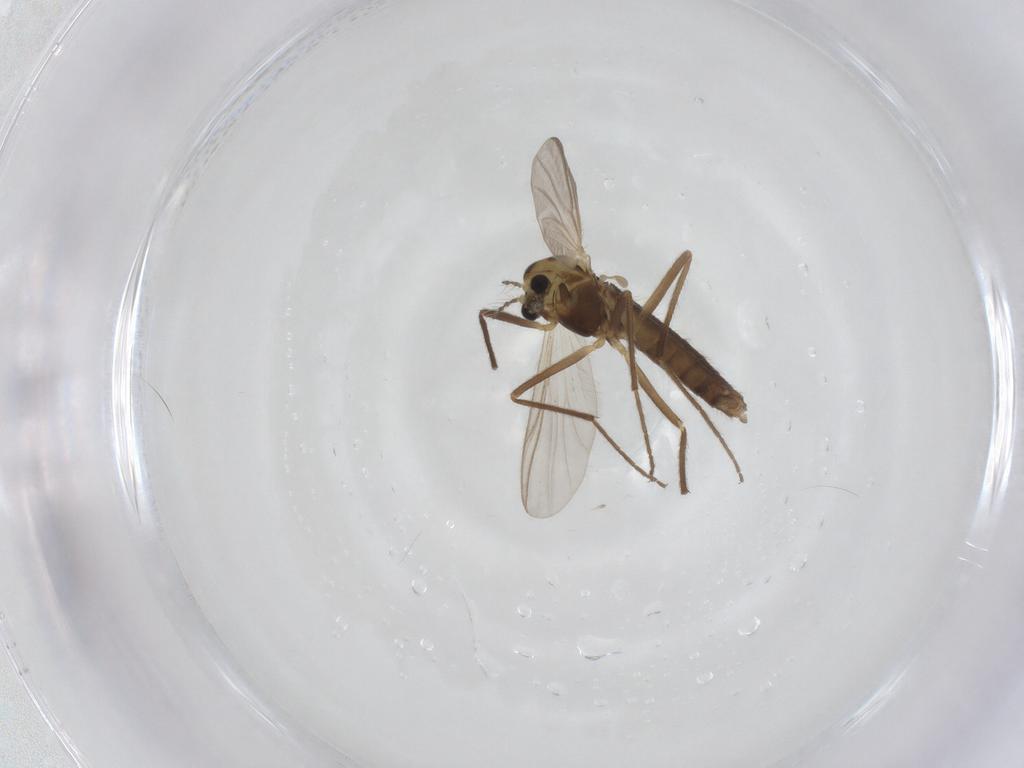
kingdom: Animalia
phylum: Arthropoda
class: Insecta
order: Diptera
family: Chironomidae
